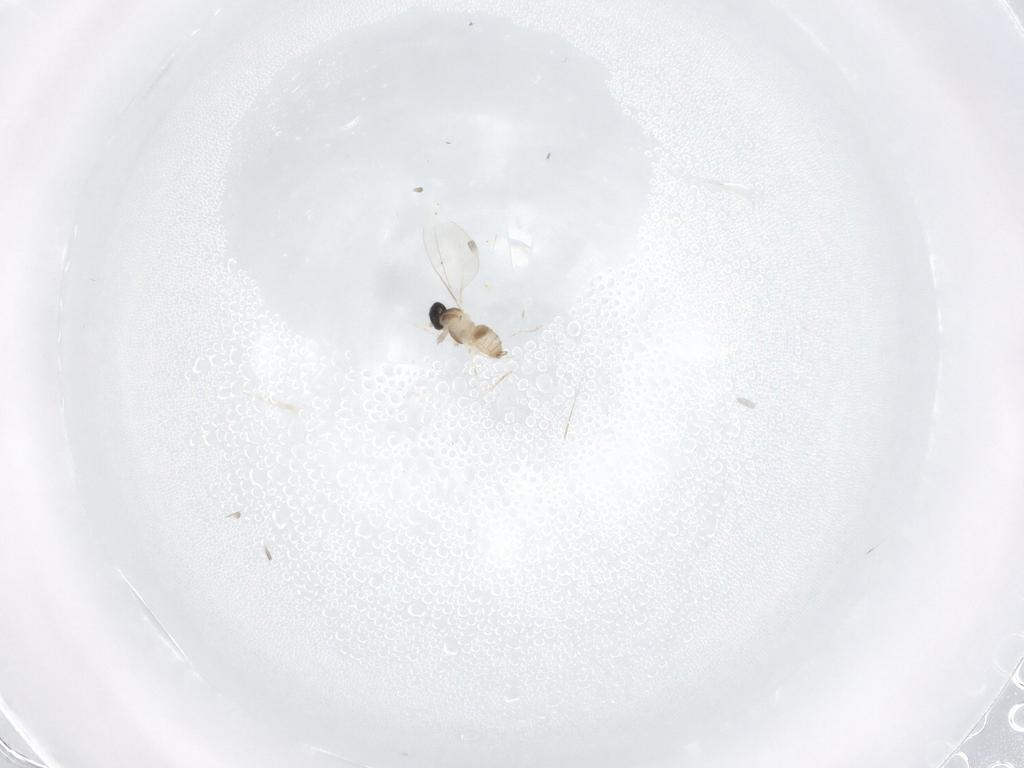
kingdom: Animalia
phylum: Arthropoda
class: Insecta
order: Diptera
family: Cecidomyiidae
